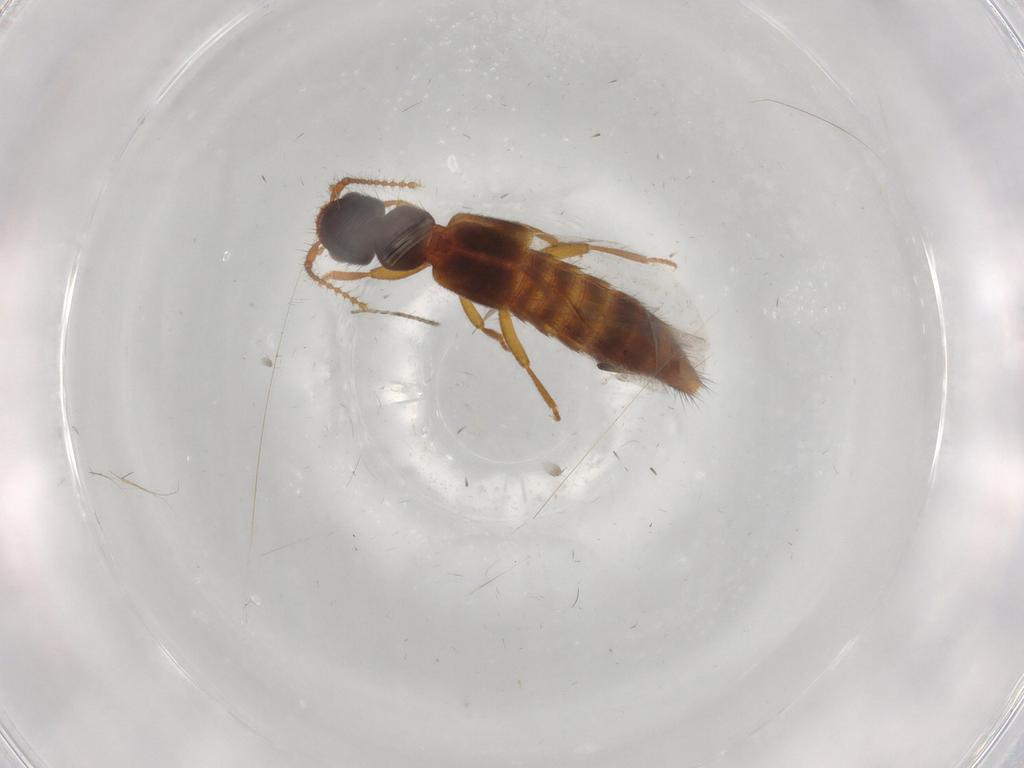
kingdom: Animalia
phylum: Arthropoda
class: Insecta
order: Coleoptera
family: Staphylinidae
